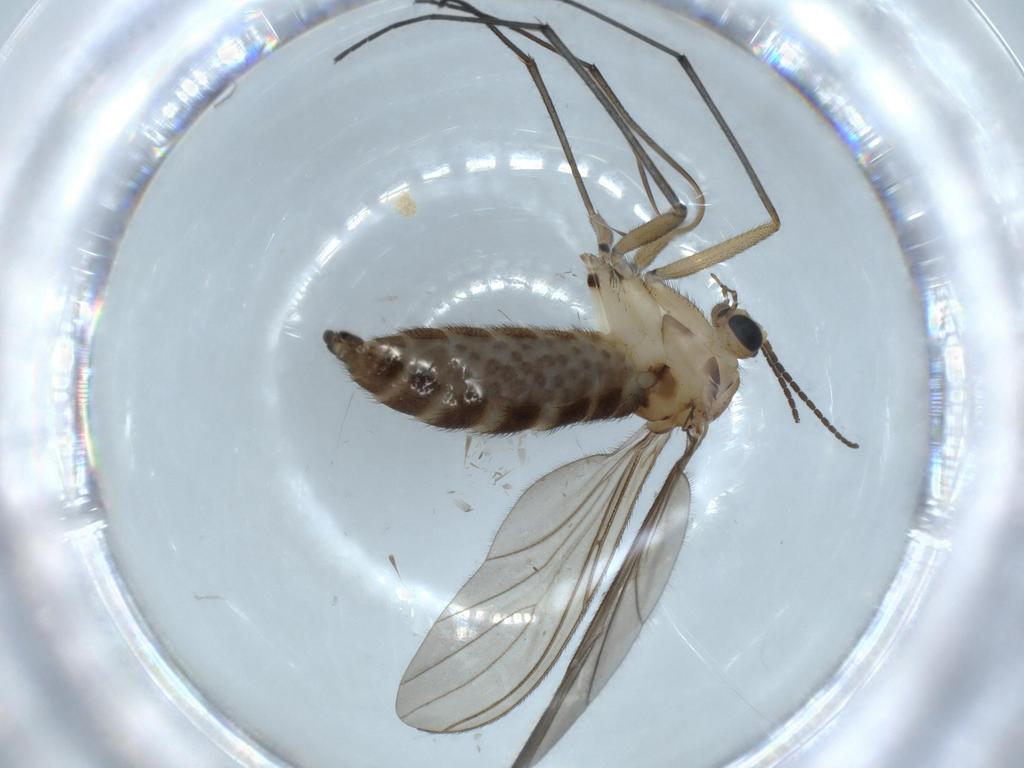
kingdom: Animalia
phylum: Arthropoda
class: Insecta
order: Diptera
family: Sciaridae
